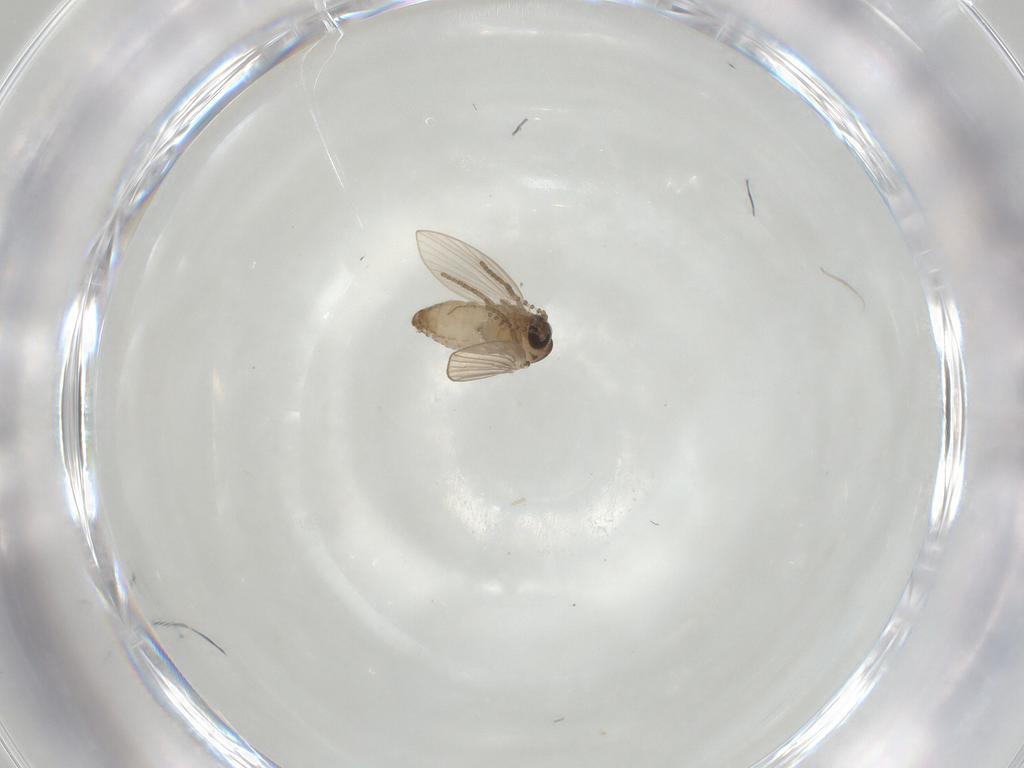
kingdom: Animalia
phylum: Arthropoda
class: Insecta
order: Diptera
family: Psychodidae
